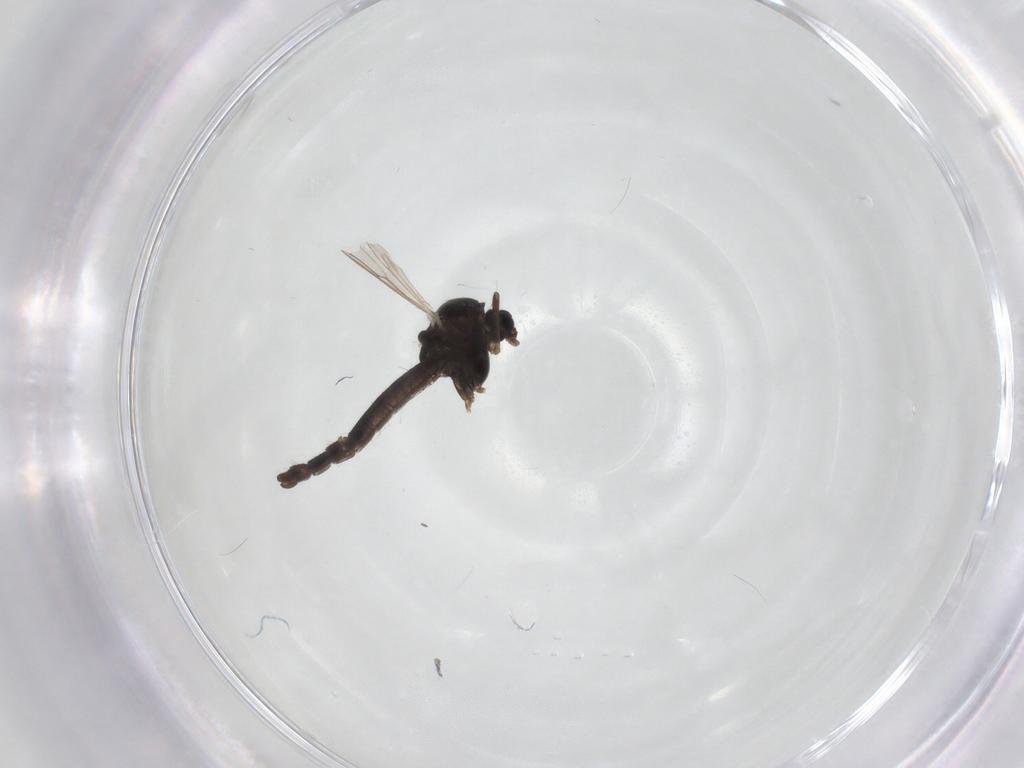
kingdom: Animalia
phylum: Arthropoda
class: Insecta
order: Diptera
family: Chironomidae
